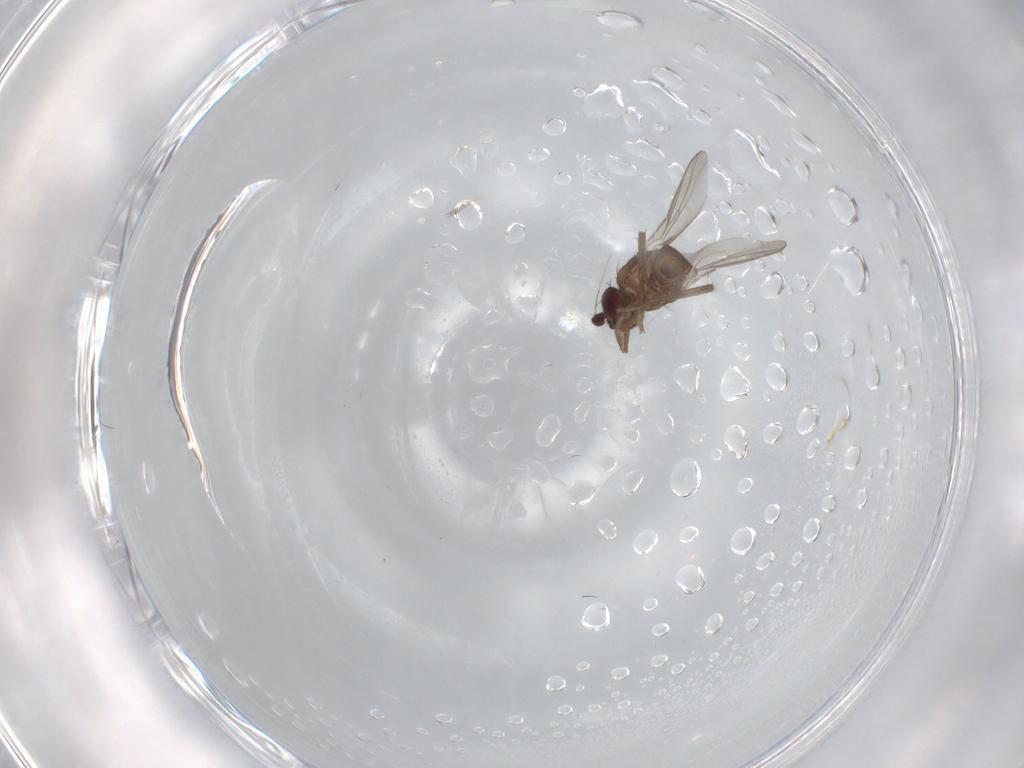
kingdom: Animalia
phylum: Arthropoda
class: Insecta
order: Diptera
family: Sphaeroceridae
